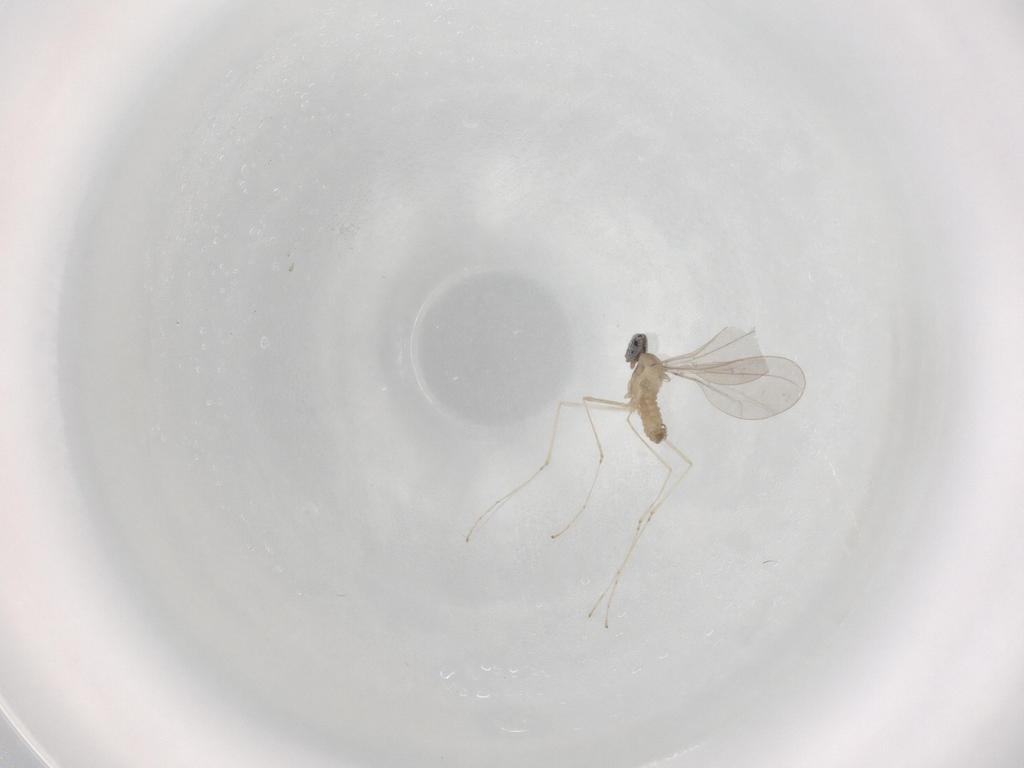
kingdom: Animalia
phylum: Arthropoda
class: Insecta
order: Diptera
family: Cecidomyiidae
